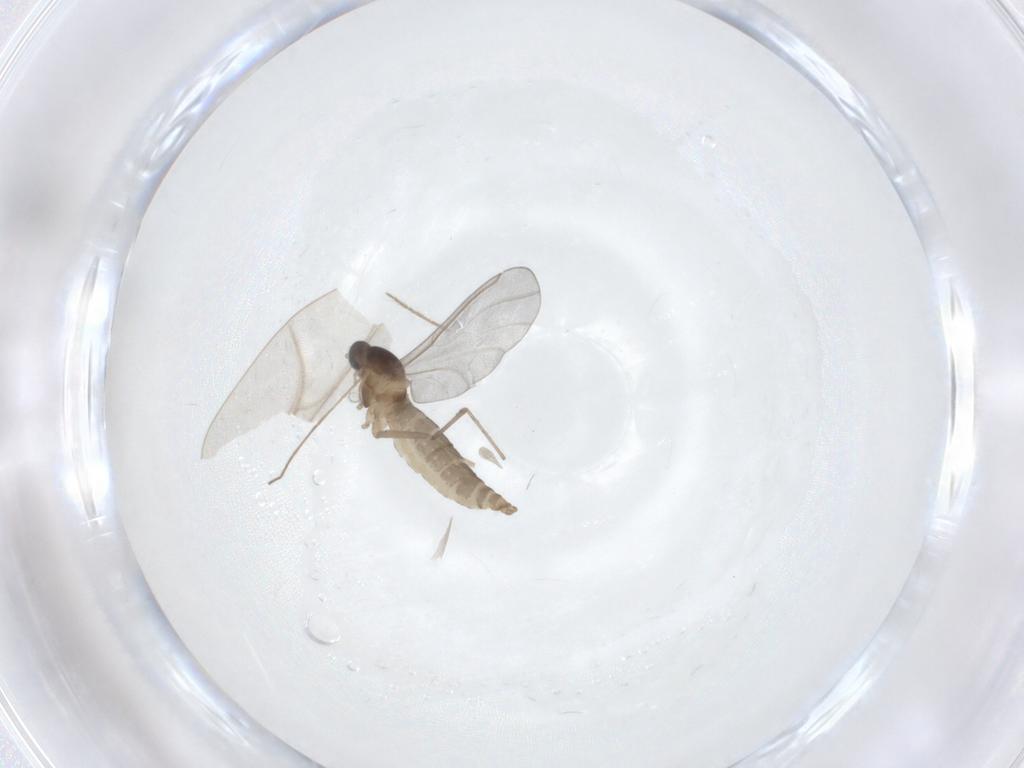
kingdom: Animalia
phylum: Arthropoda
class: Insecta
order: Diptera
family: Cecidomyiidae
